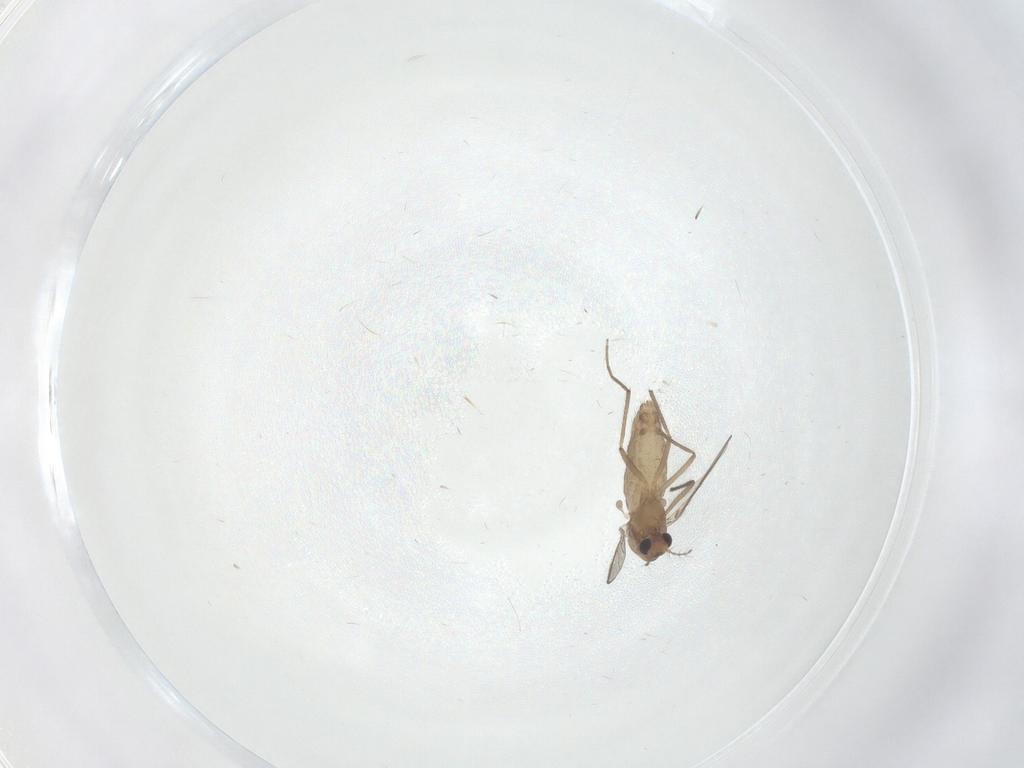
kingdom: Animalia
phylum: Arthropoda
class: Insecta
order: Diptera
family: Chironomidae
